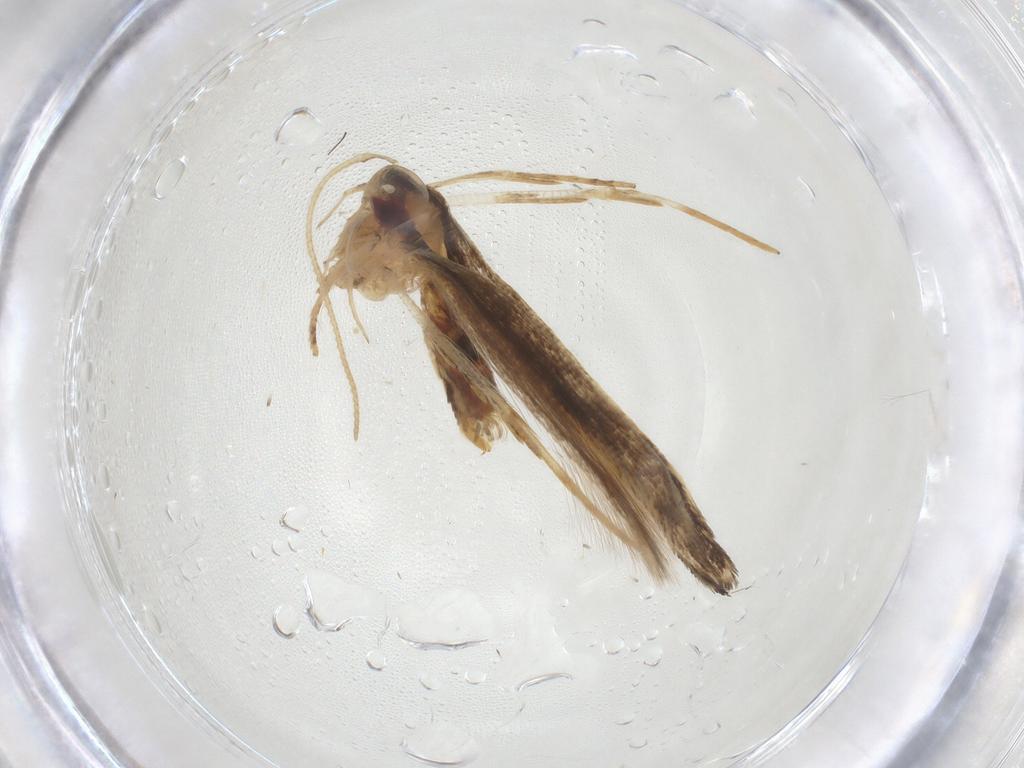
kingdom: Animalia
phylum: Arthropoda
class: Insecta
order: Lepidoptera
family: Cosmopterigidae
